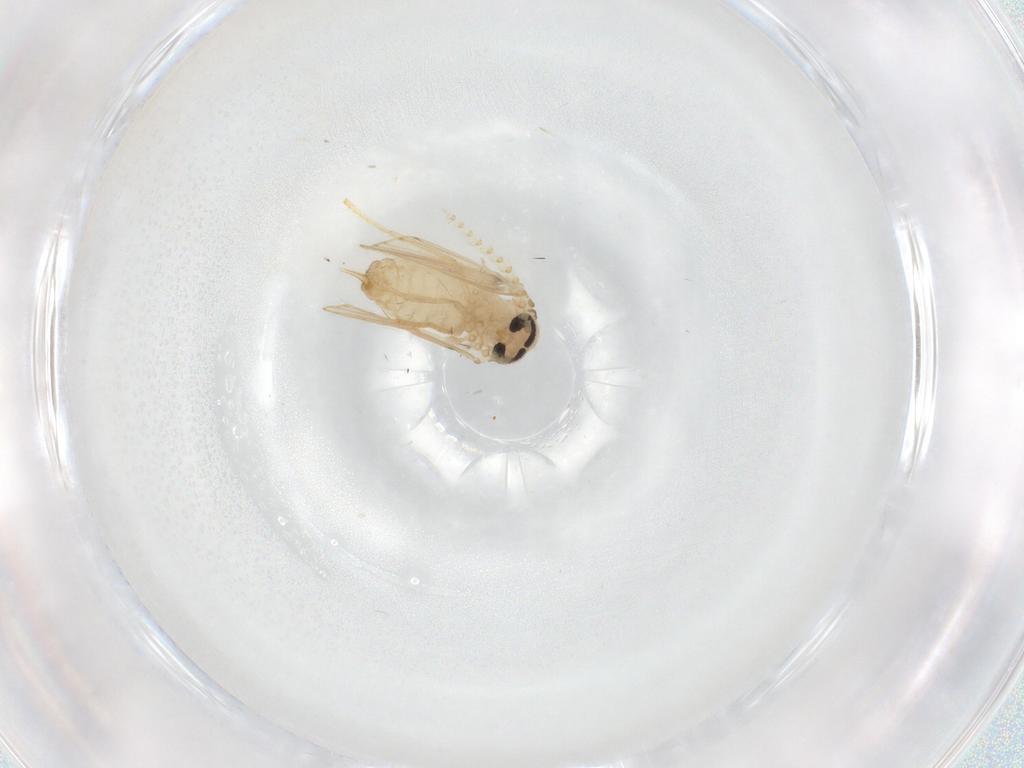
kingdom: Animalia
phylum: Arthropoda
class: Insecta
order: Diptera
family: Psychodidae
